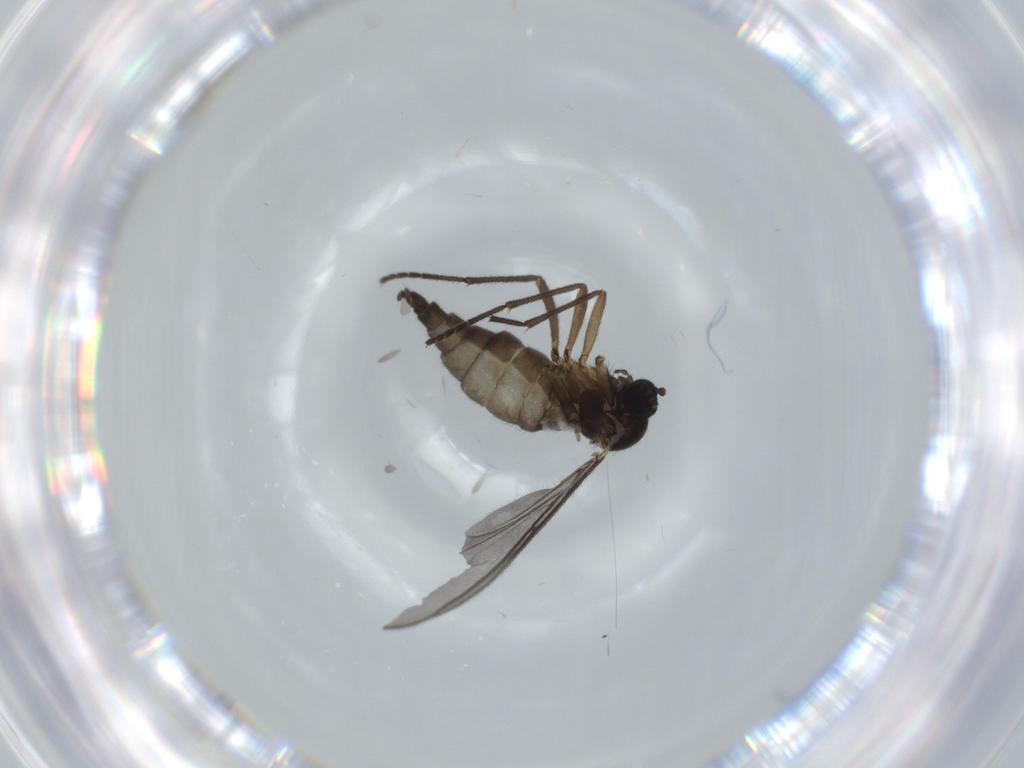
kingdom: Animalia
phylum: Arthropoda
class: Insecta
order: Diptera
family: Sciaridae
